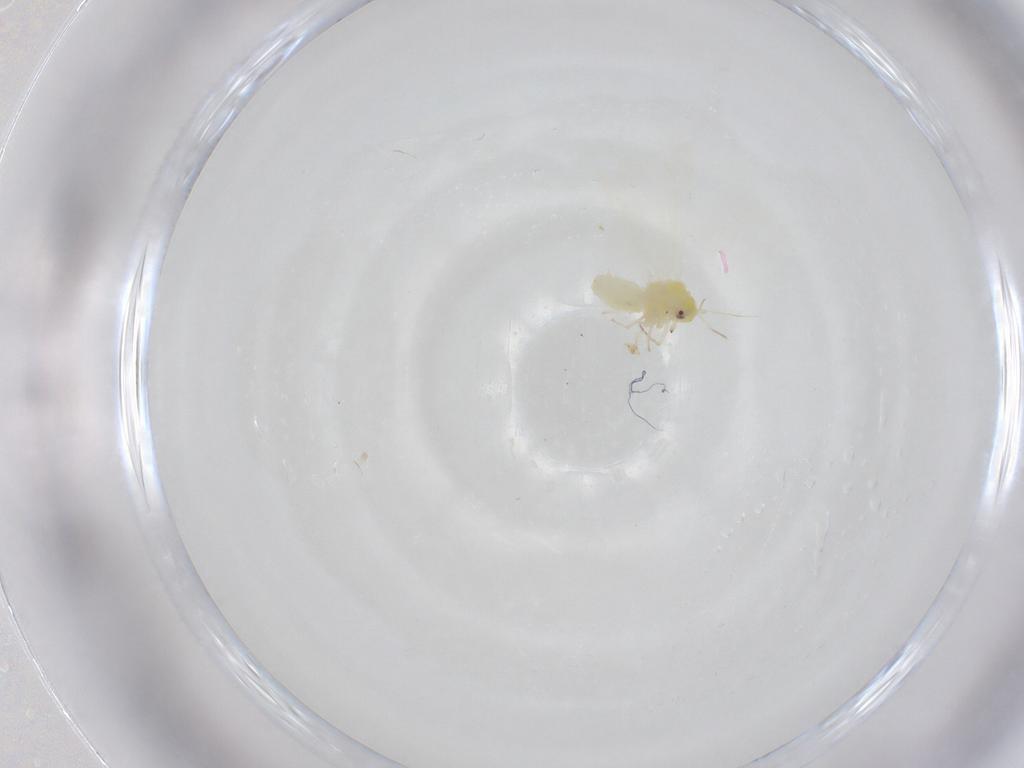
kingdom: Animalia
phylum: Arthropoda
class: Insecta
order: Hemiptera
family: Aleyrodidae
